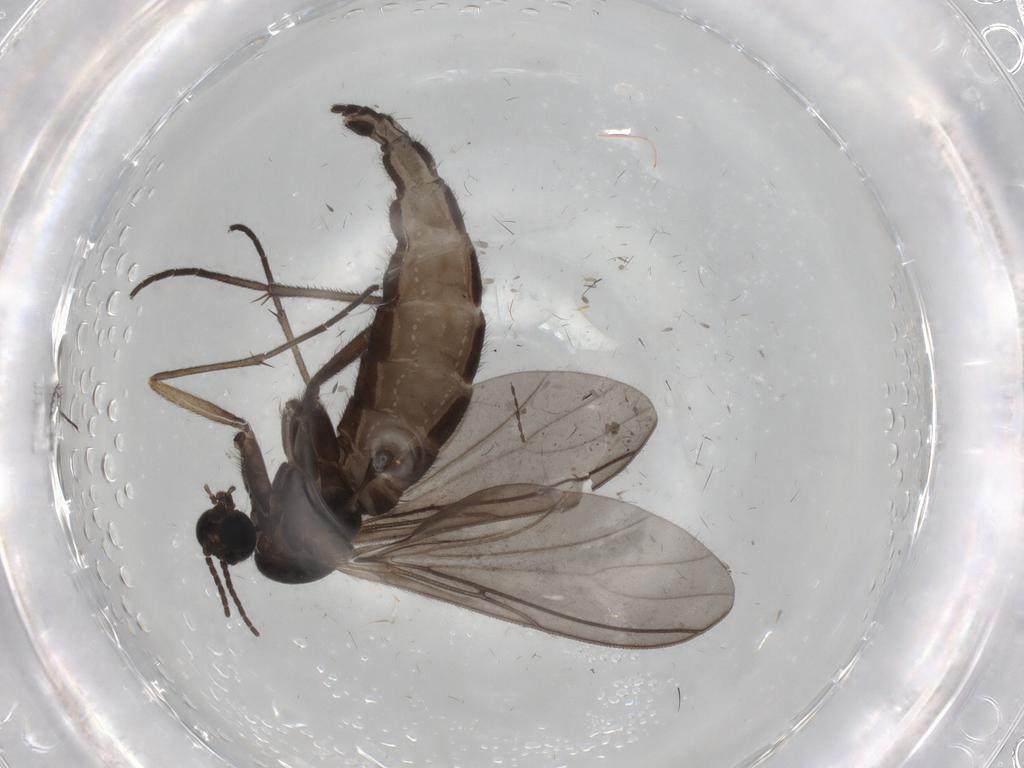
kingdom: Animalia
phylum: Arthropoda
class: Insecta
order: Diptera
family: Sciaridae
